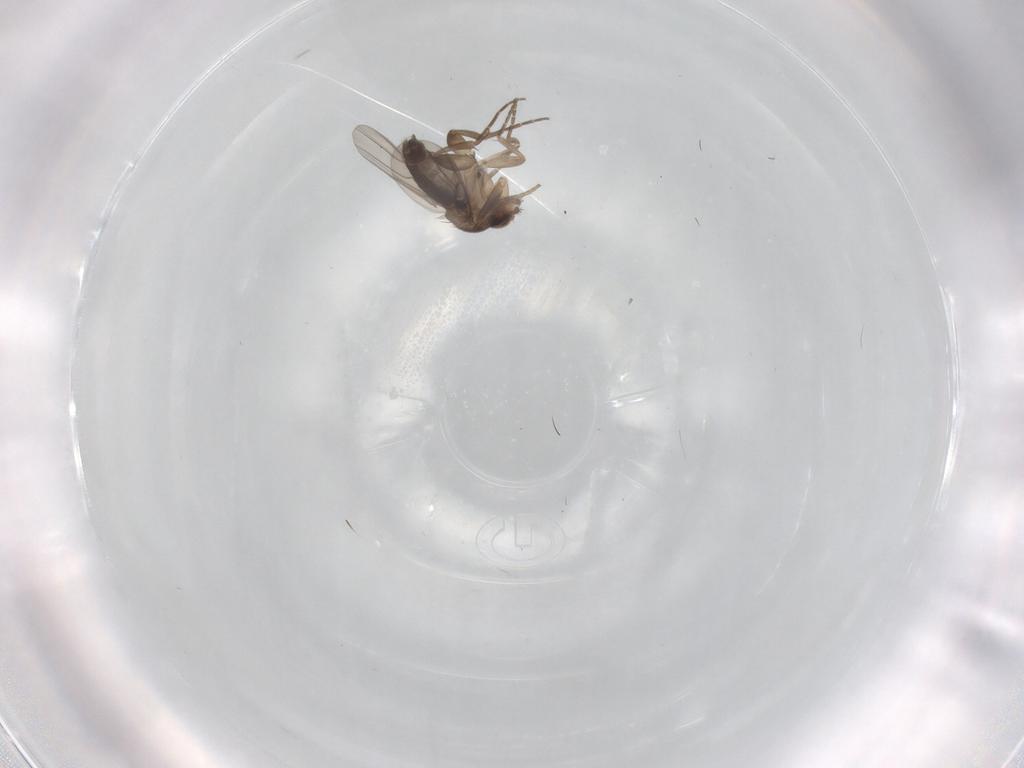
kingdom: Animalia
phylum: Arthropoda
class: Insecta
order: Diptera
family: Phoridae
